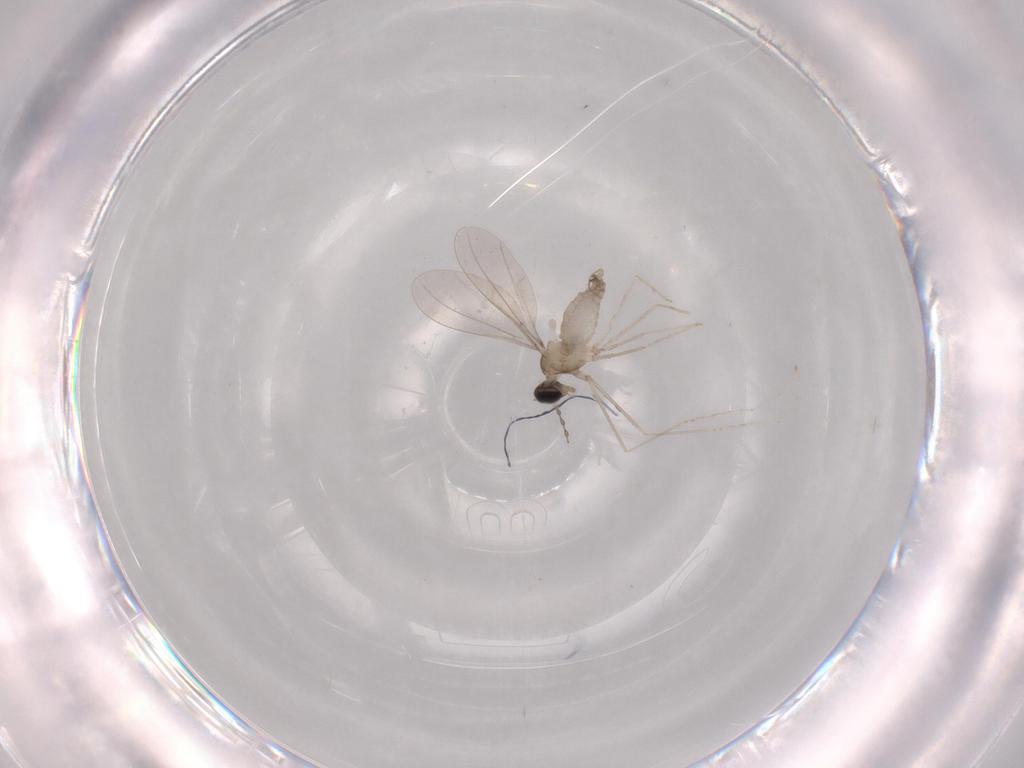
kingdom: Animalia
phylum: Arthropoda
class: Insecta
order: Diptera
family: Cecidomyiidae
